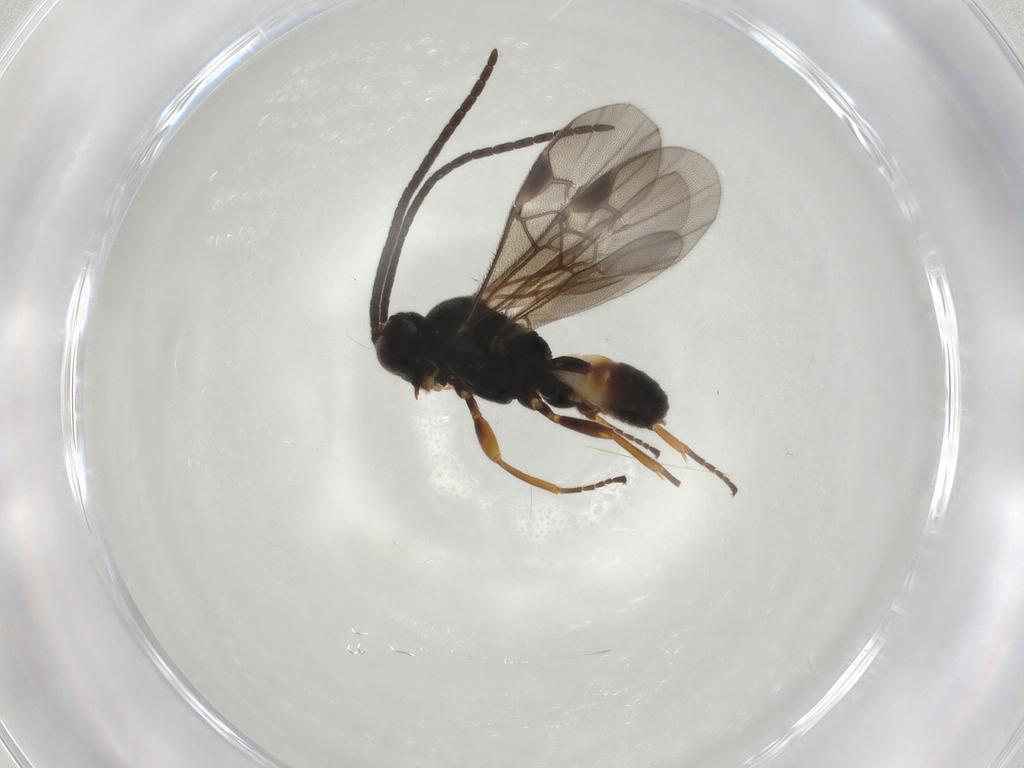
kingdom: Animalia
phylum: Arthropoda
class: Insecta
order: Hymenoptera
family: Braconidae
